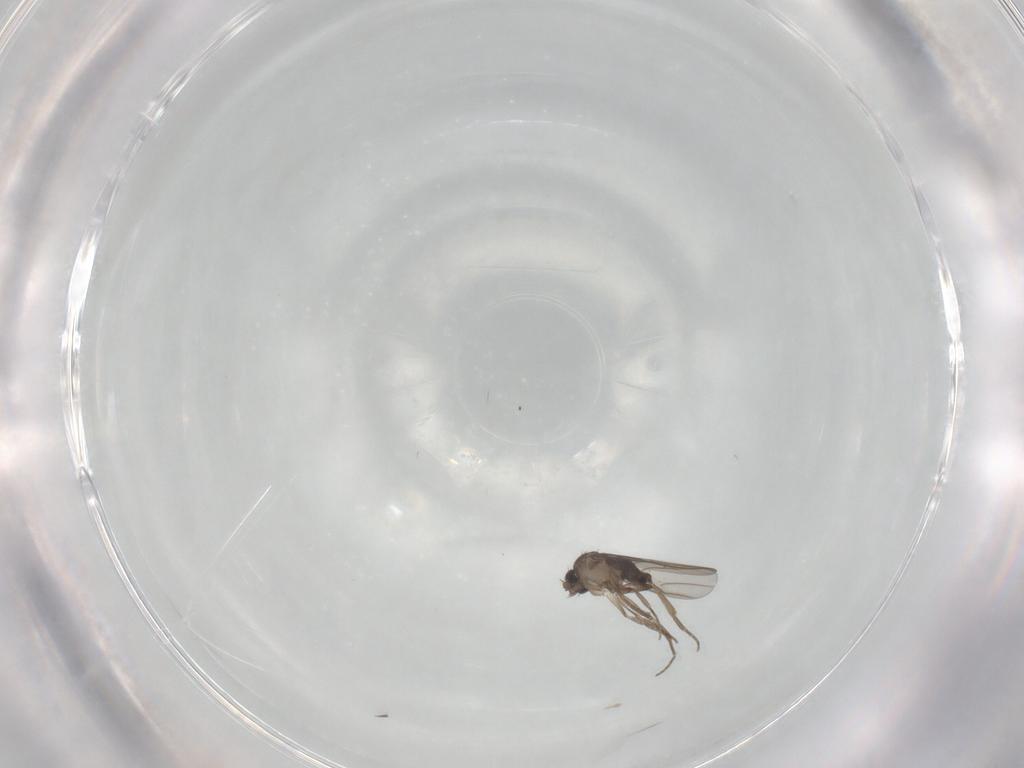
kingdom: Animalia
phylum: Arthropoda
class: Insecta
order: Diptera
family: Phoridae
